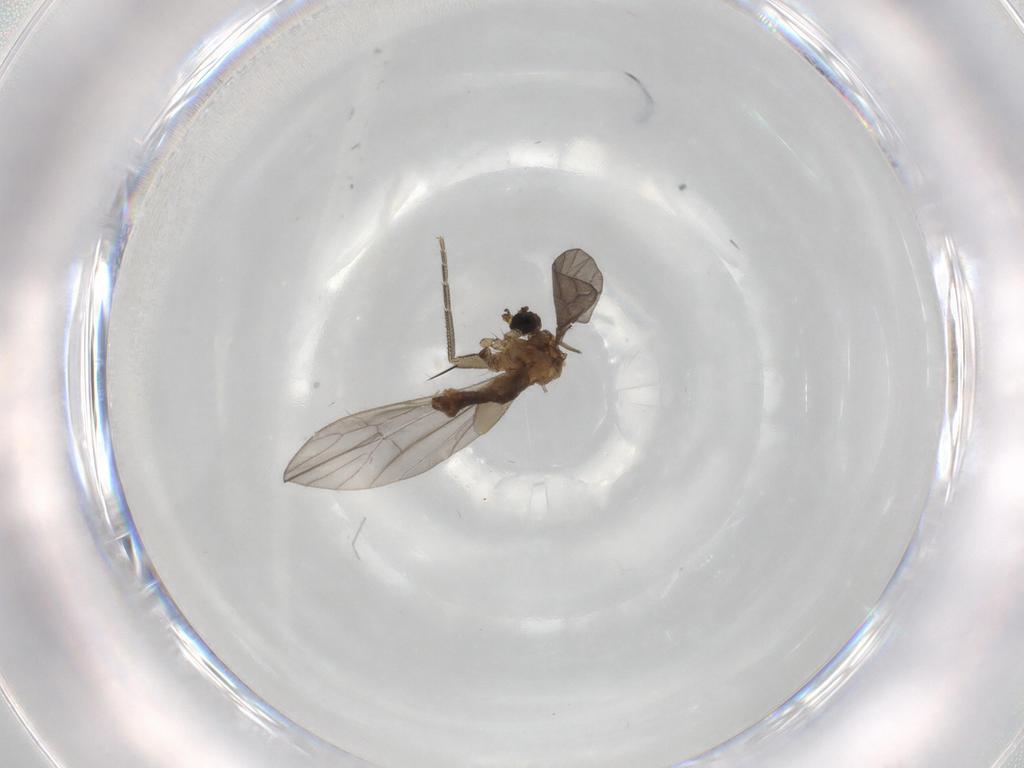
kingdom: Animalia
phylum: Arthropoda
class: Insecta
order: Diptera
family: Limoniidae
